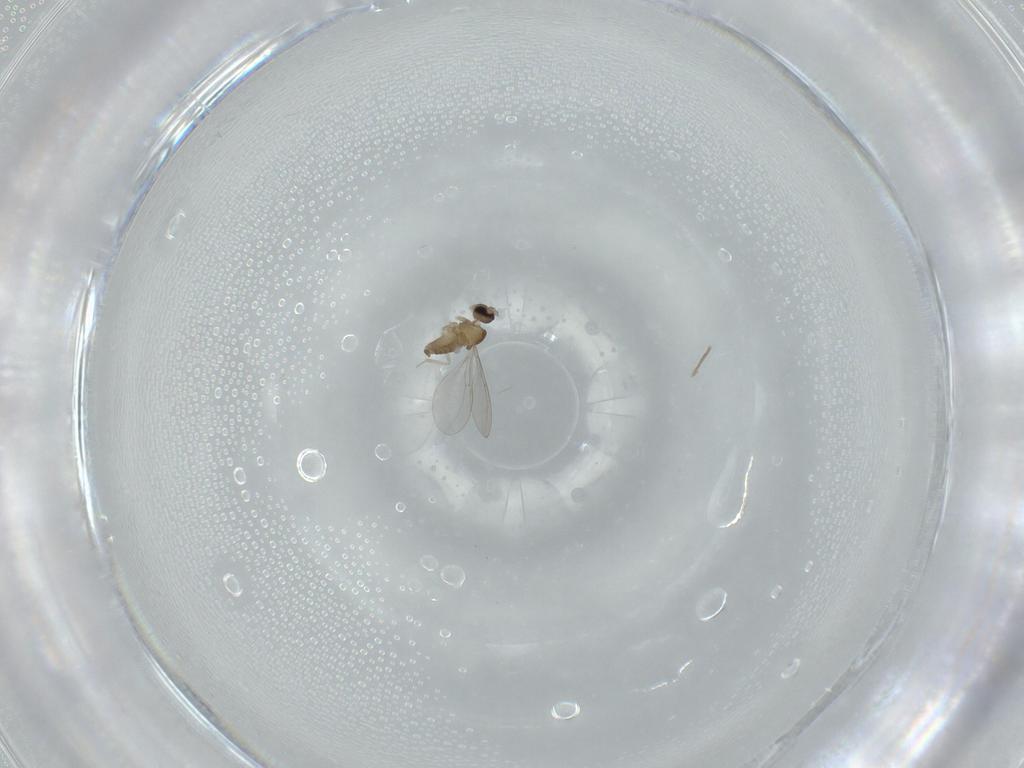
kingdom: Animalia
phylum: Arthropoda
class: Insecta
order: Diptera
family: Cecidomyiidae
